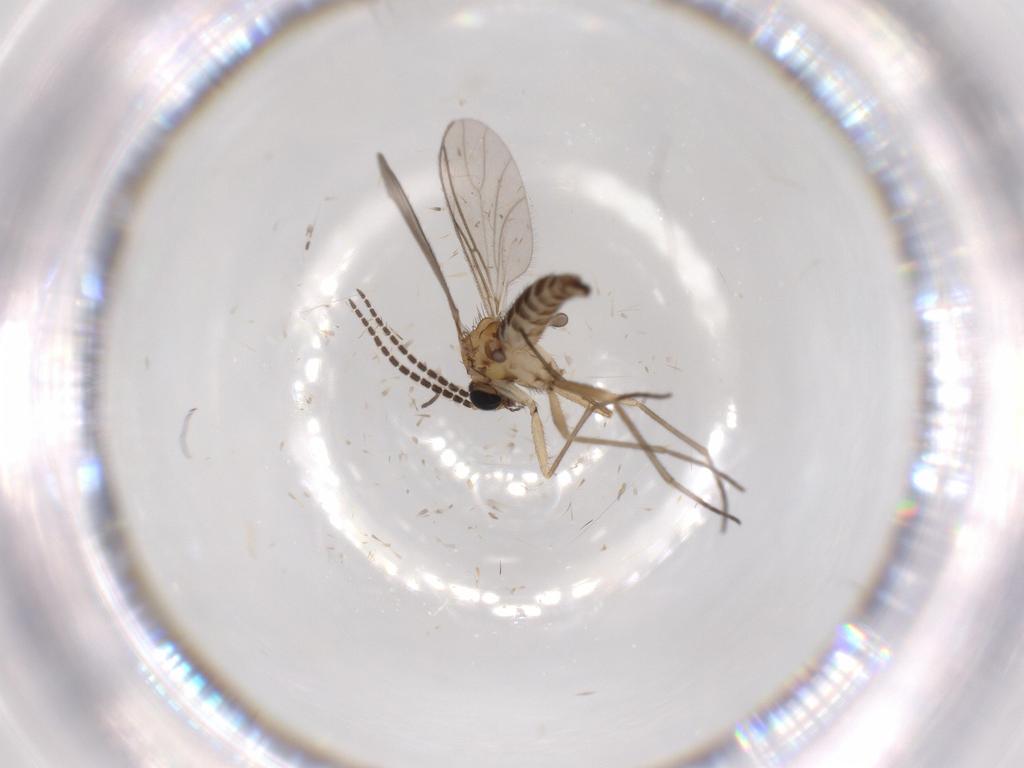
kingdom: Animalia
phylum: Arthropoda
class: Insecta
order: Diptera
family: Sciaridae
